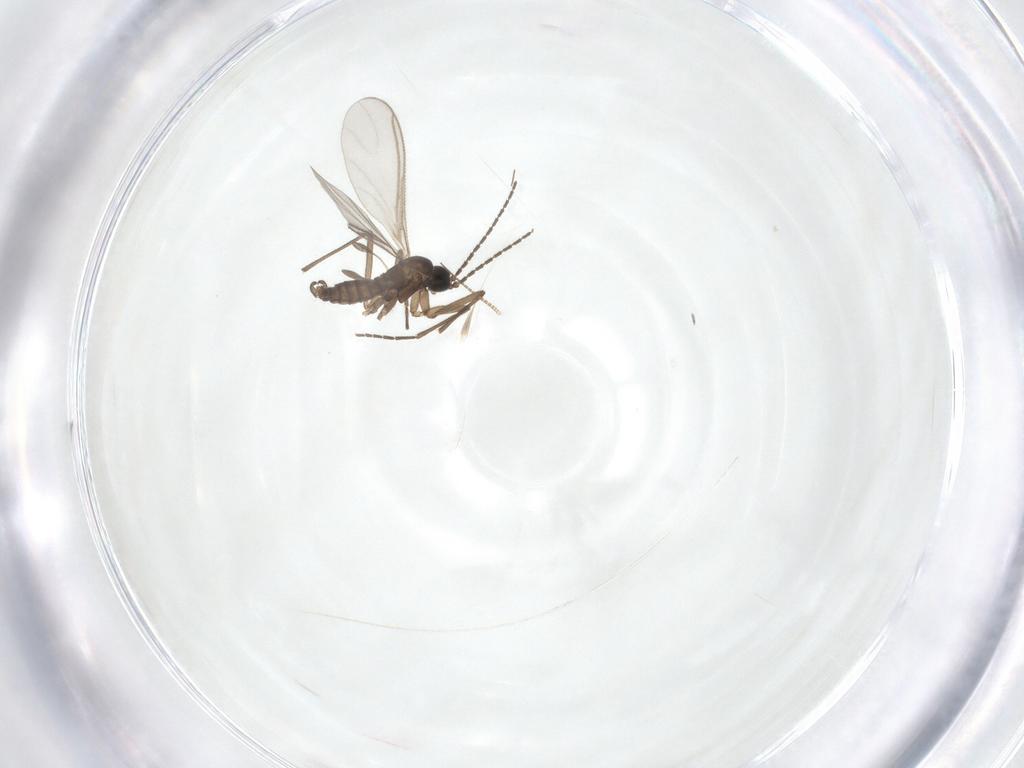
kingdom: Animalia
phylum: Arthropoda
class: Insecta
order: Diptera
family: Sciaridae
